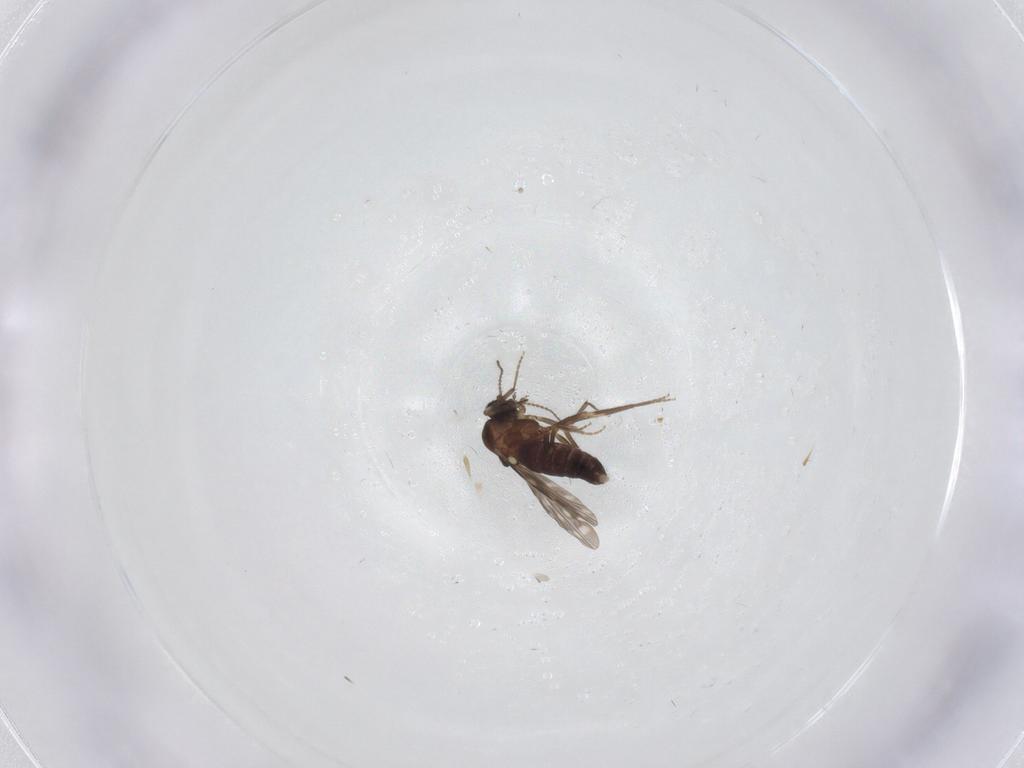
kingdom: Animalia
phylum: Arthropoda
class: Insecta
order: Diptera
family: Ceratopogonidae
